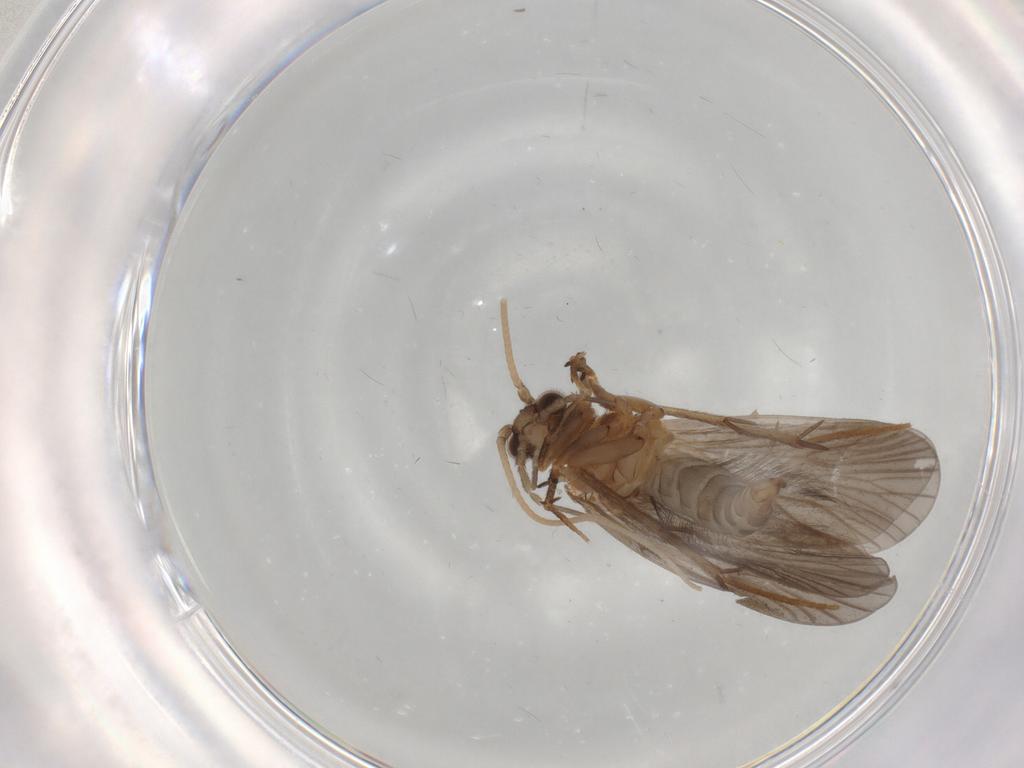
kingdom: Animalia
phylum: Arthropoda
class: Insecta
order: Trichoptera
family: Philopotamidae
